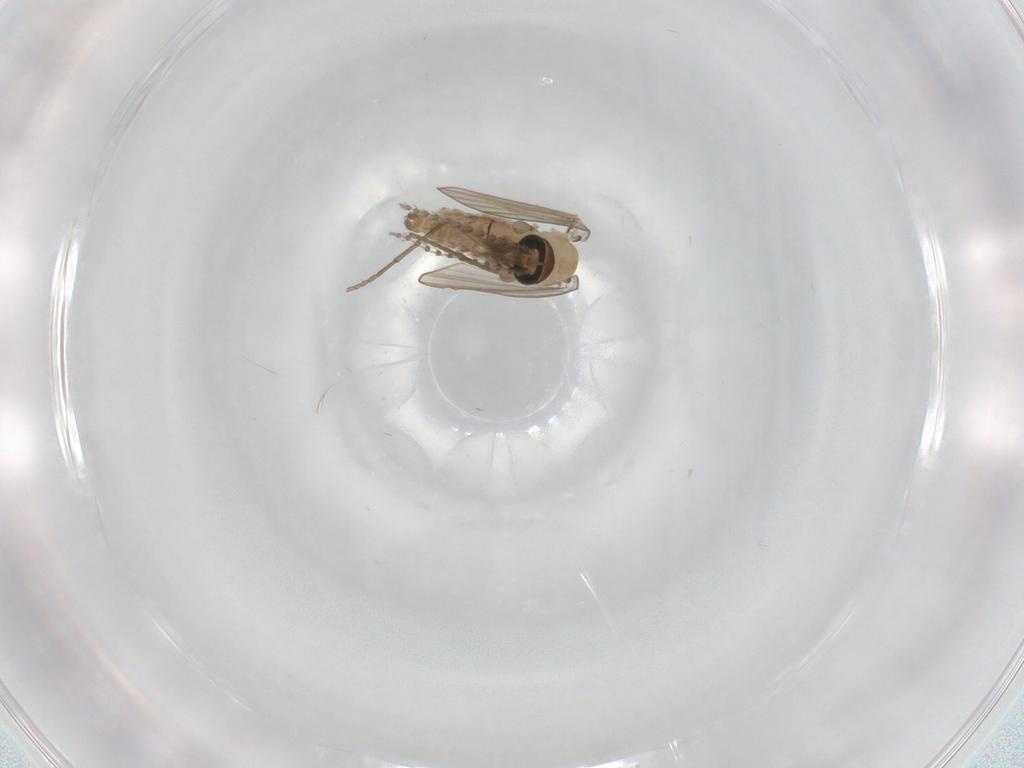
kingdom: Animalia
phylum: Arthropoda
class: Insecta
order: Diptera
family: Psychodidae
